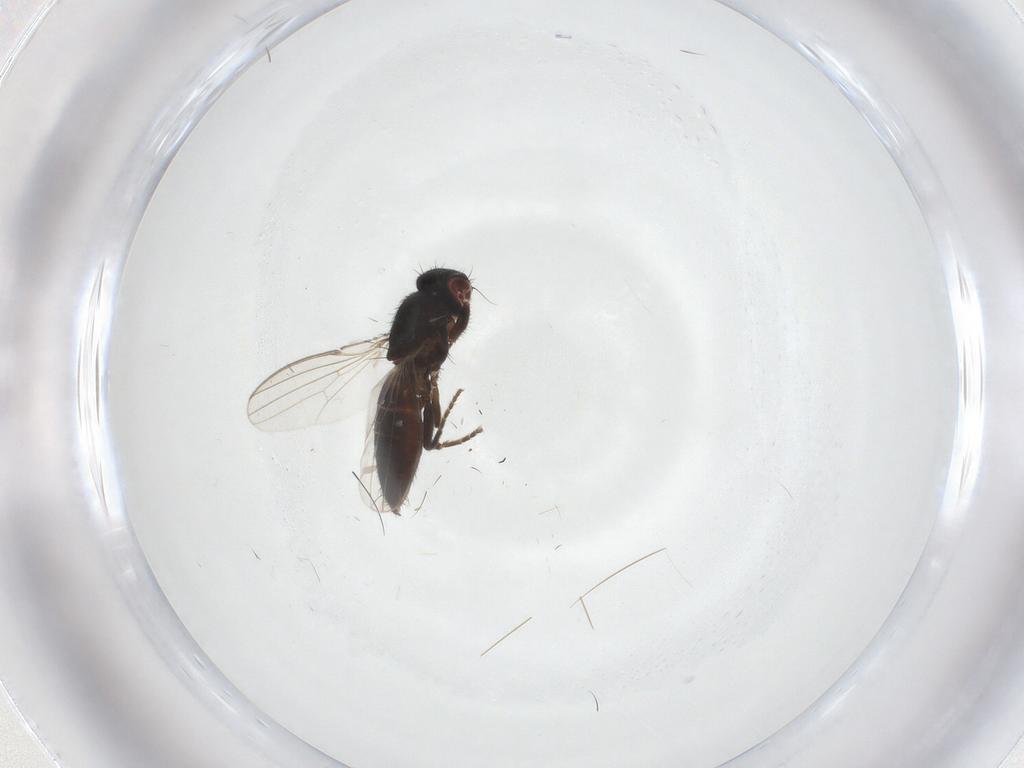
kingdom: Animalia
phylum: Arthropoda
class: Insecta
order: Diptera
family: Milichiidae
